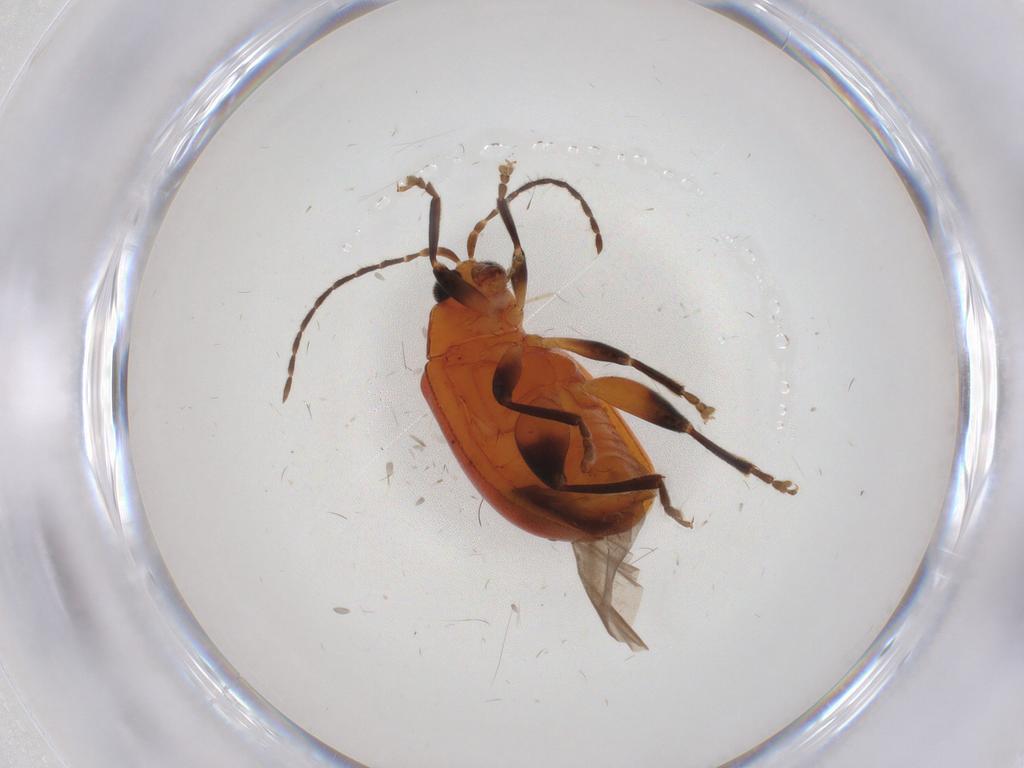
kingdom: Animalia
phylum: Arthropoda
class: Insecta
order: Coleoptera
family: Chrysomelidae
